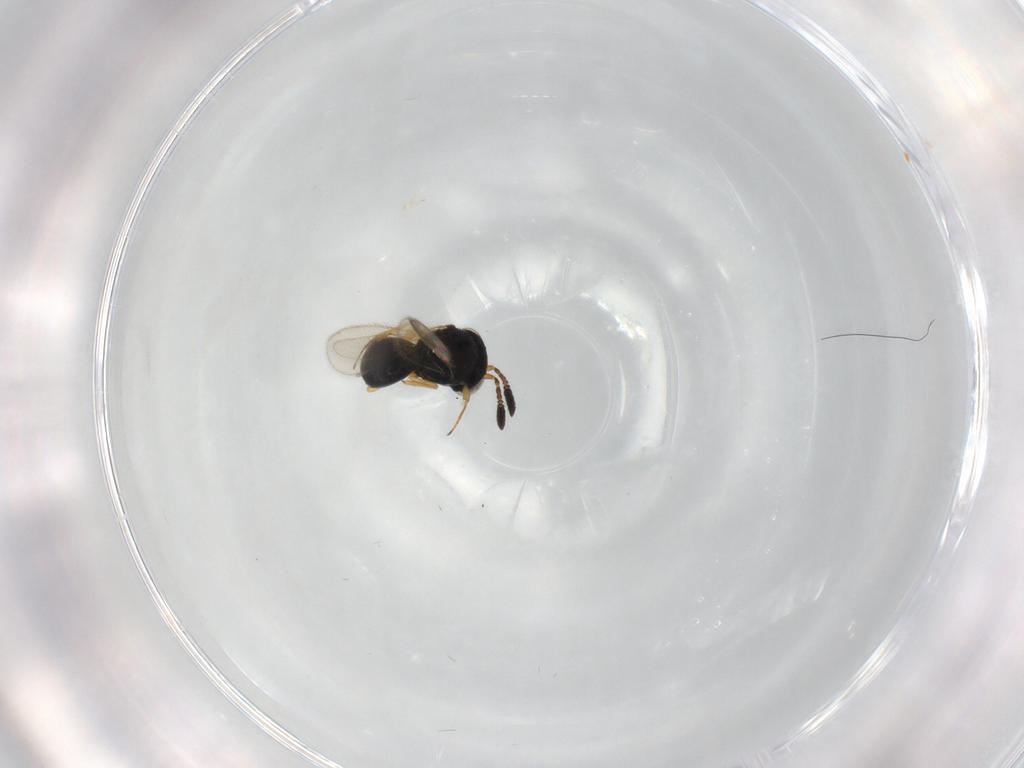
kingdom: Animalia
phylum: Arthropoda
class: Insecta
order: Hymenoptera
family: Scelionidae
